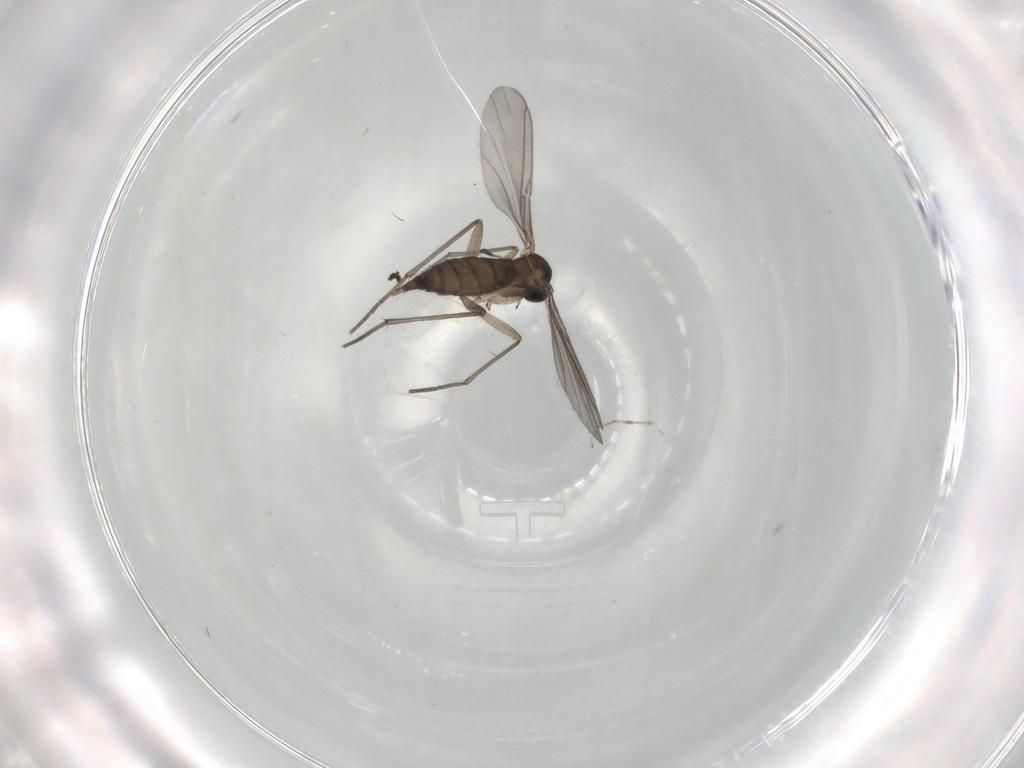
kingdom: Animalia
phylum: Arthropoda
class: Insecta
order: Diptera
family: Cecidomyiidae
